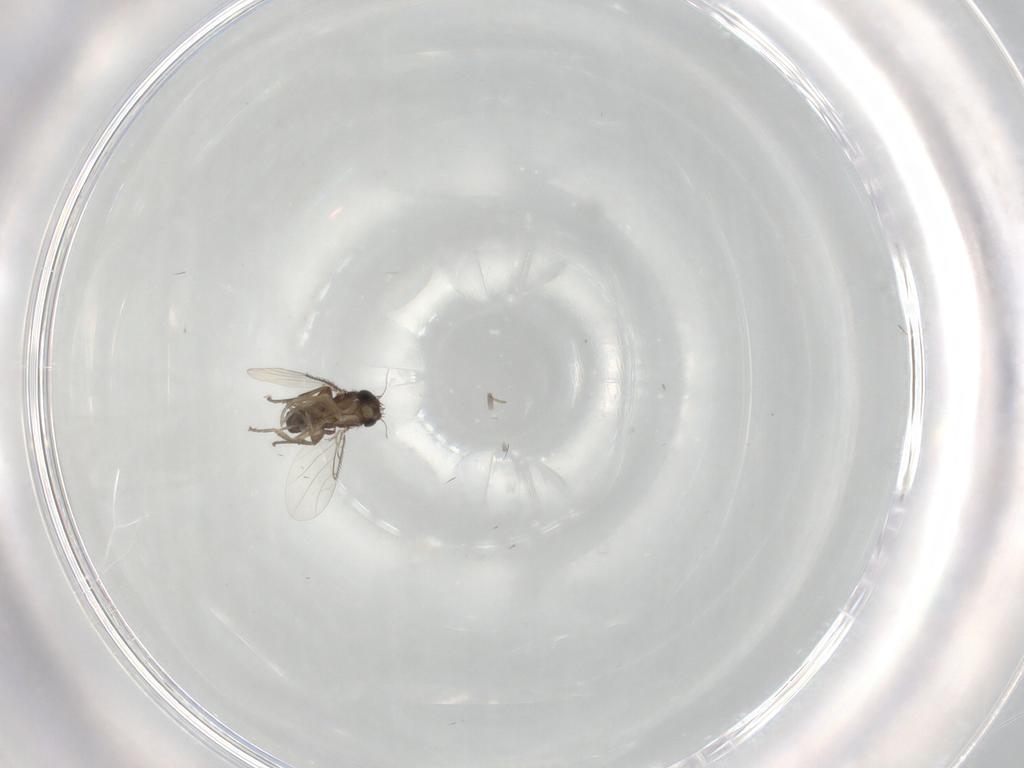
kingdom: Animalia
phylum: Arthropoda
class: Insecta
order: Diptera
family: Phoridae
